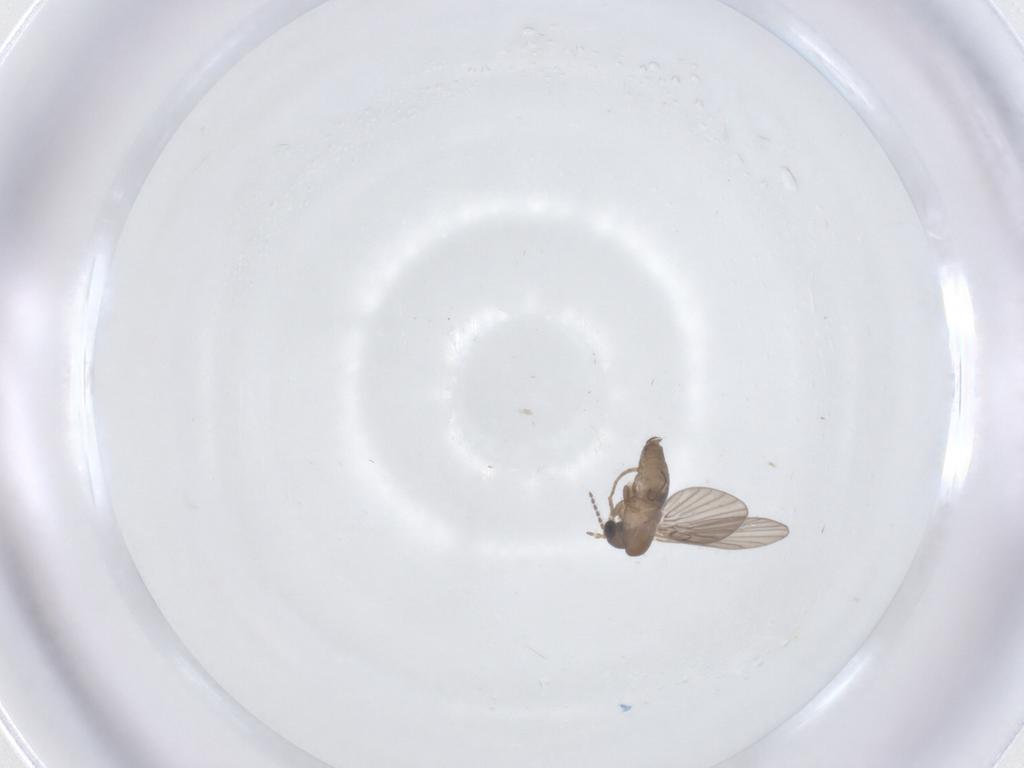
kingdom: Animalia
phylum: Arthropoda
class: Insecta
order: Diptera
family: Psychodidae
